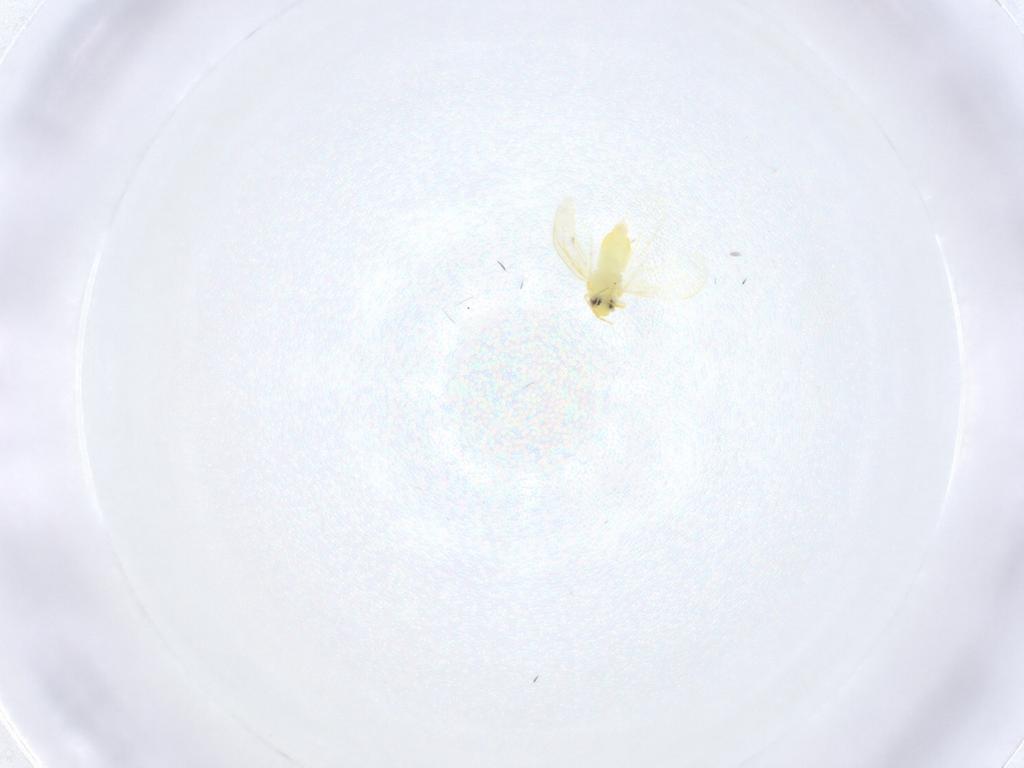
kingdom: Animalia
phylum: Arthropoda
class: Insecta
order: Hemiptera
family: Aleyrodidae
